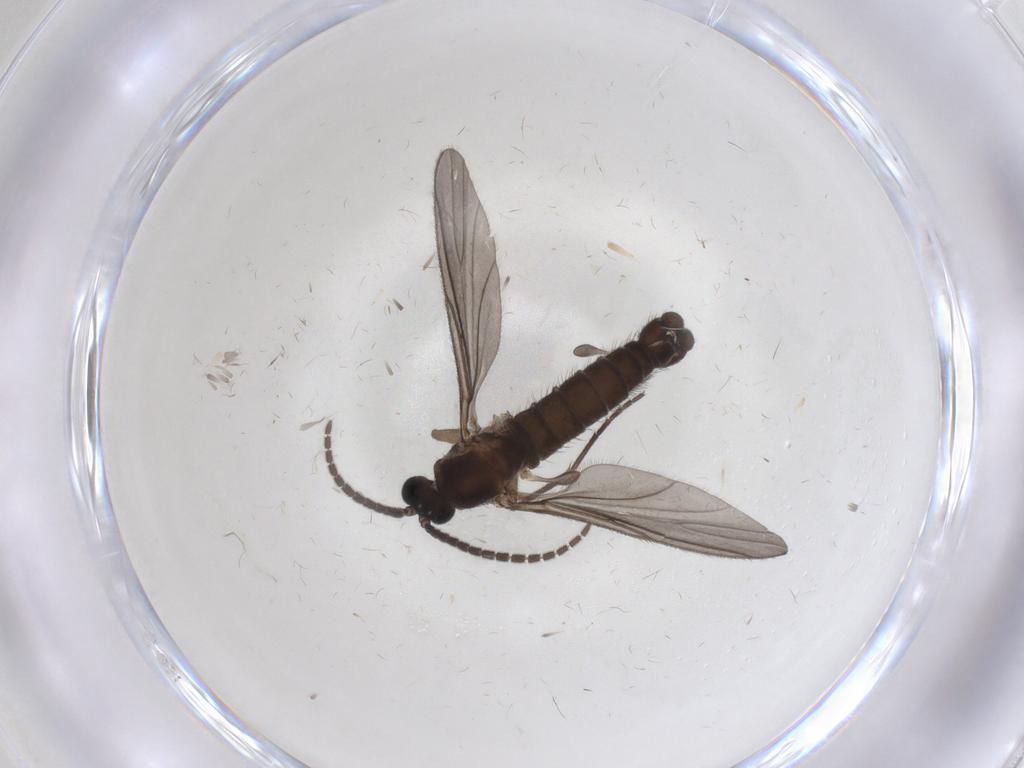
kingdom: Animalia
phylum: Arthropoda
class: Insecta
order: Diptera
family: Sciaridae
